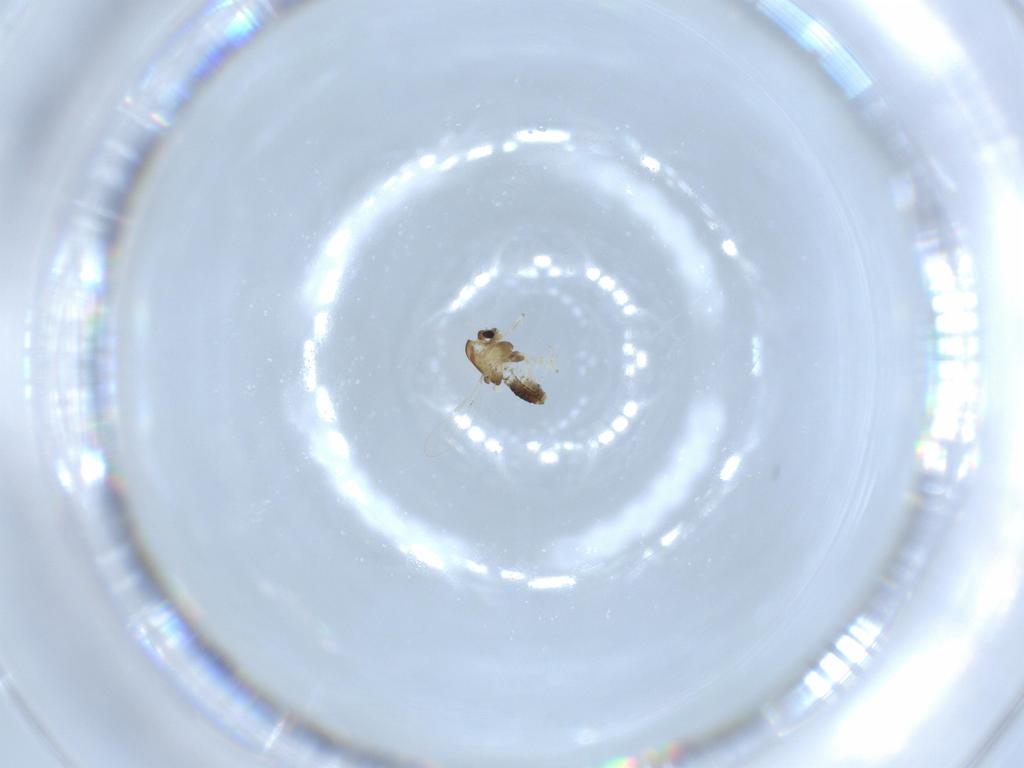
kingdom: Animalia
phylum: Arthropoda
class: Insecta
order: Diptera
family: Chironomidae
